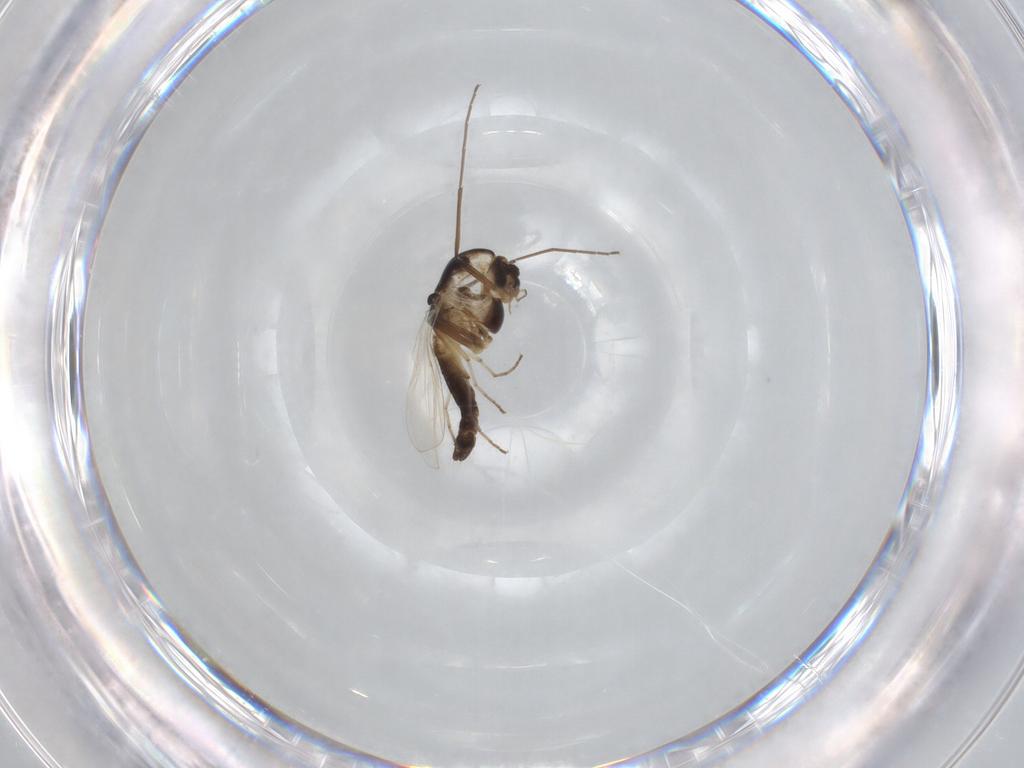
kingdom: Animalia
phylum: Arthropoda
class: Insecta
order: Diptera
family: Chironomidae
